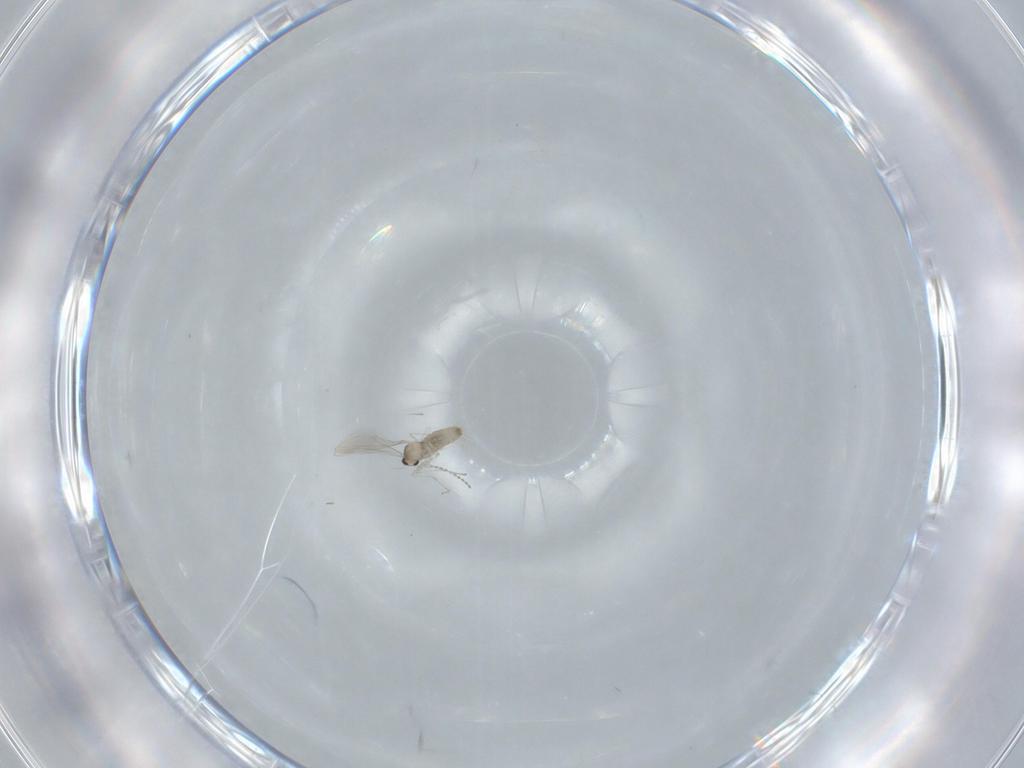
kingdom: Animalia
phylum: Arthropoda
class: Insecta
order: Diptera
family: Cecidomyiidae
